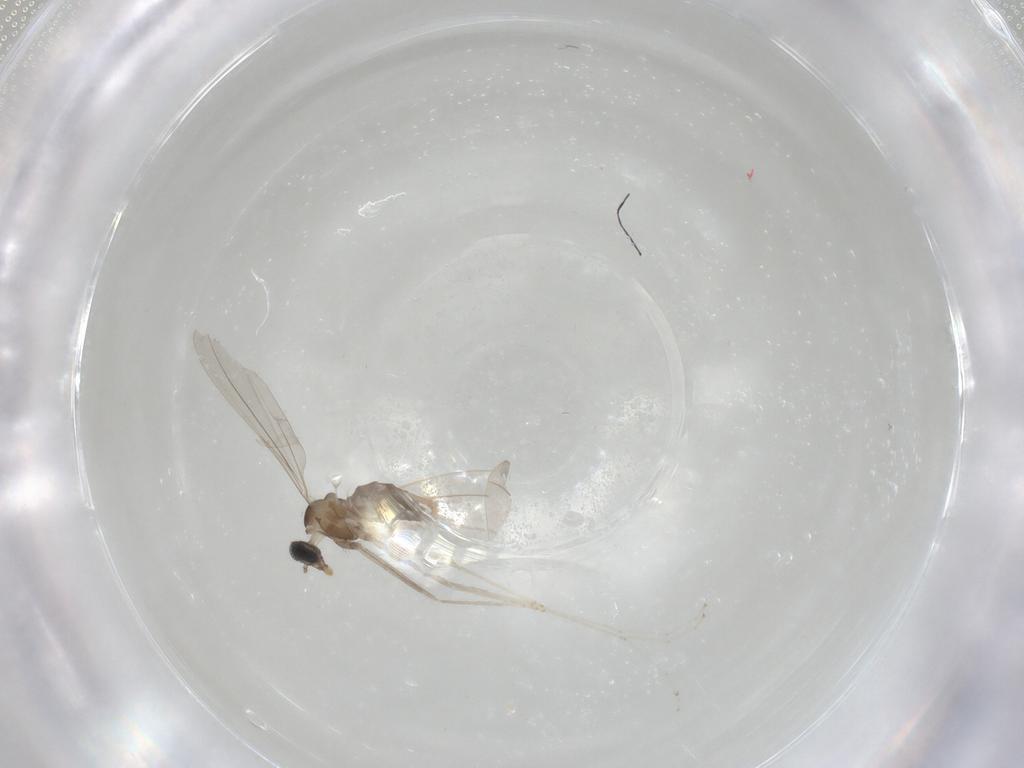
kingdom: Animalia
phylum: Arthropoda
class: Insecta
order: Diptera
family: Cecidomyiidae
